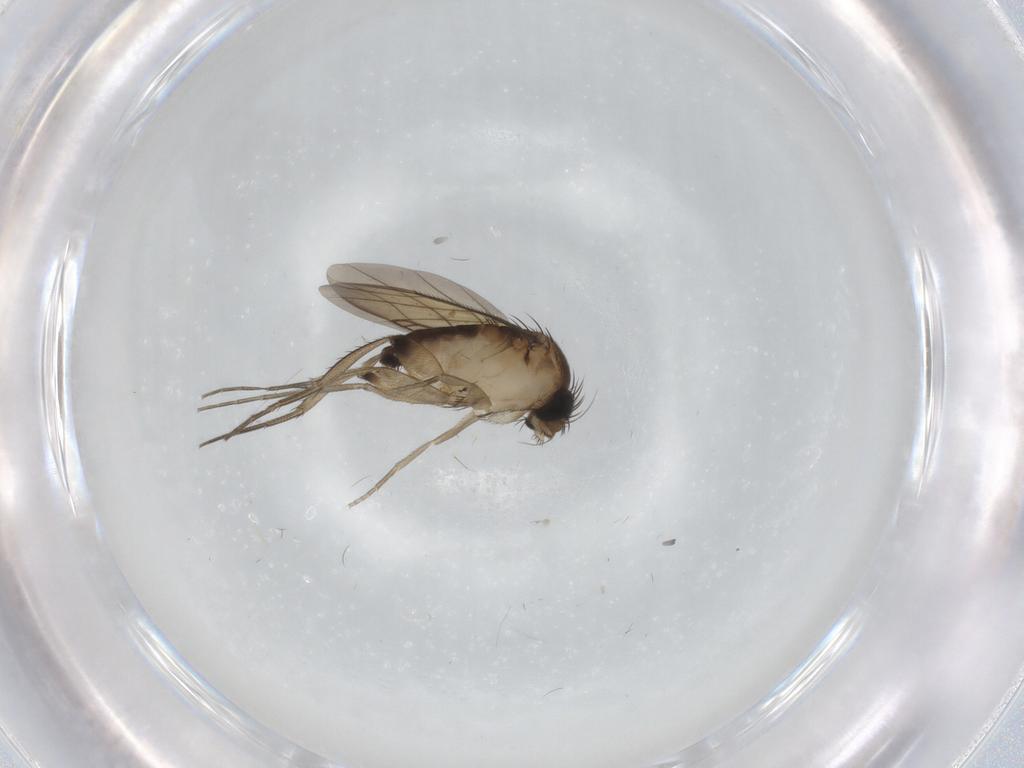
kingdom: Animalia
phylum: Arthropoda
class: Insecta
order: Diptera
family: Phoridae
